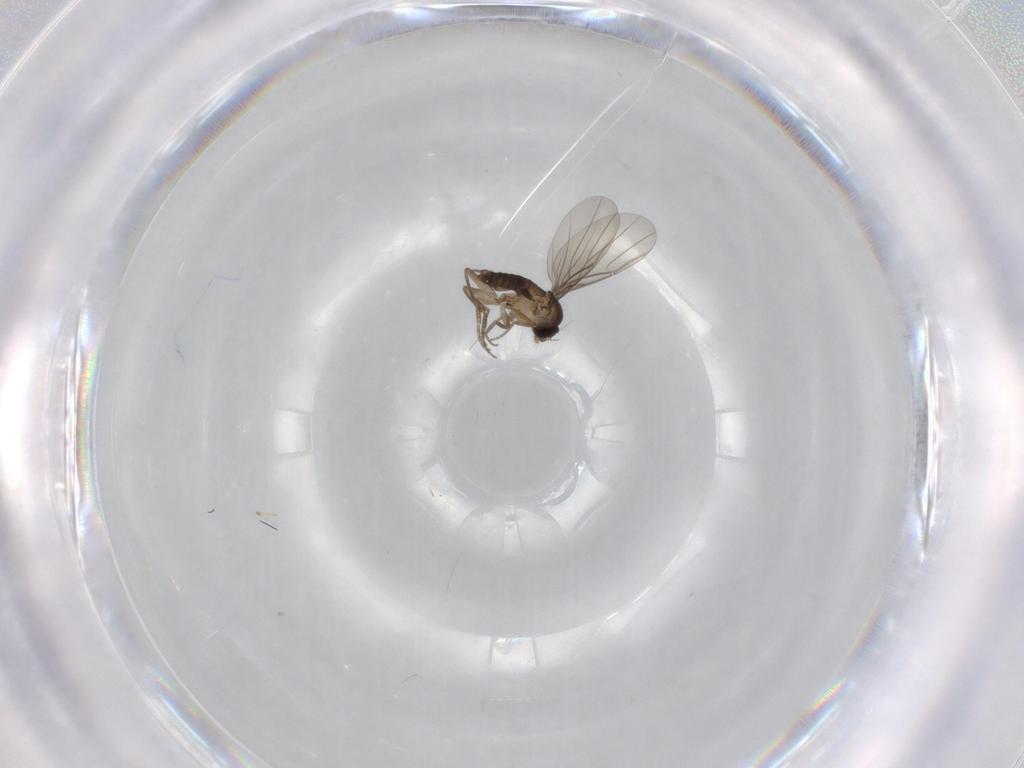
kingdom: Animalia
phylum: Arthropoda
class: Insecta
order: Diptera
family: Phoridae
